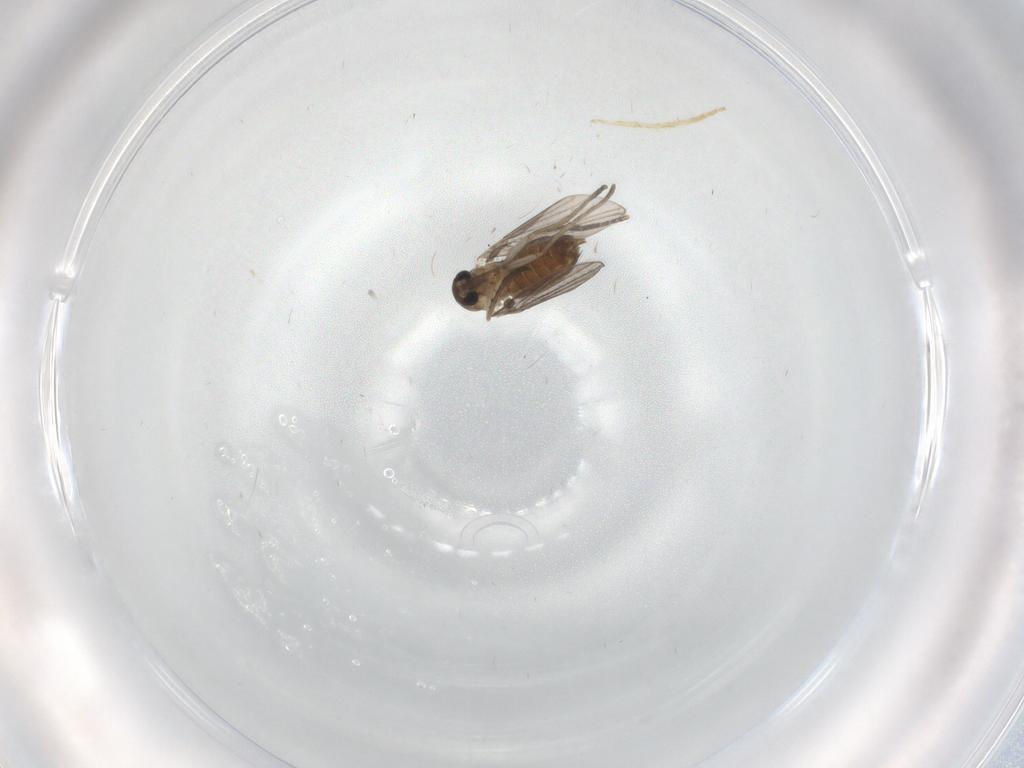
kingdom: Animalia
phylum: Arthropoda
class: Insecta
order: Diptera
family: Chironomidae
